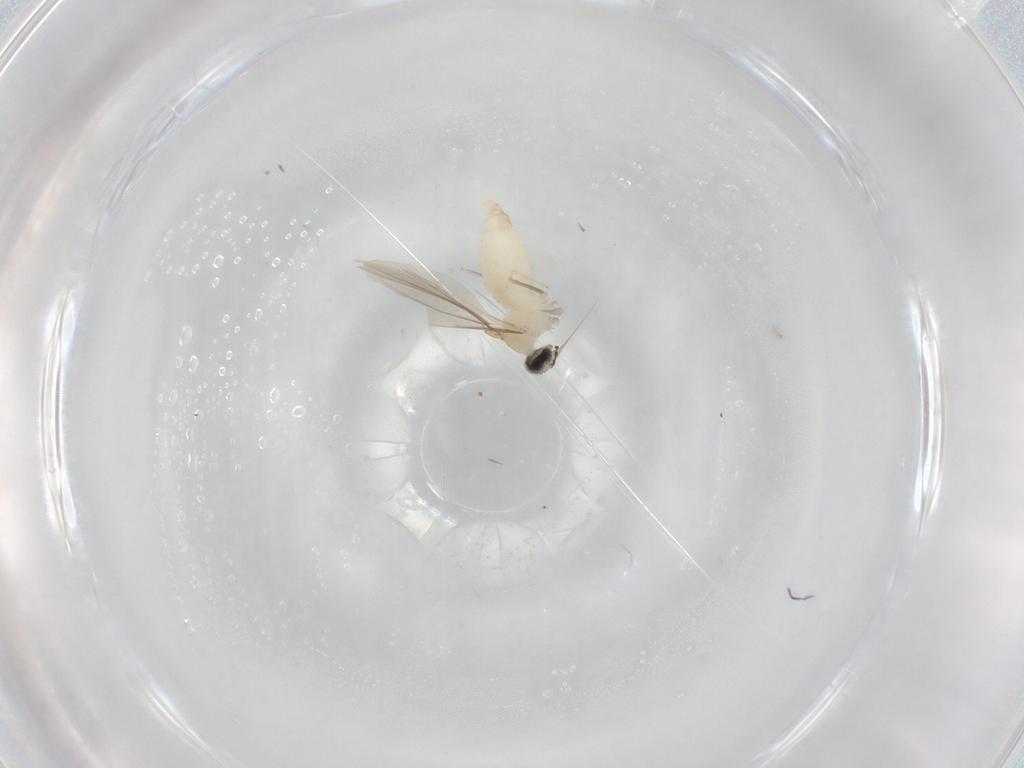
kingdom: Animalia
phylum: Arthropoda
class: Insecta
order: Diptera
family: Cecidomyiidae
